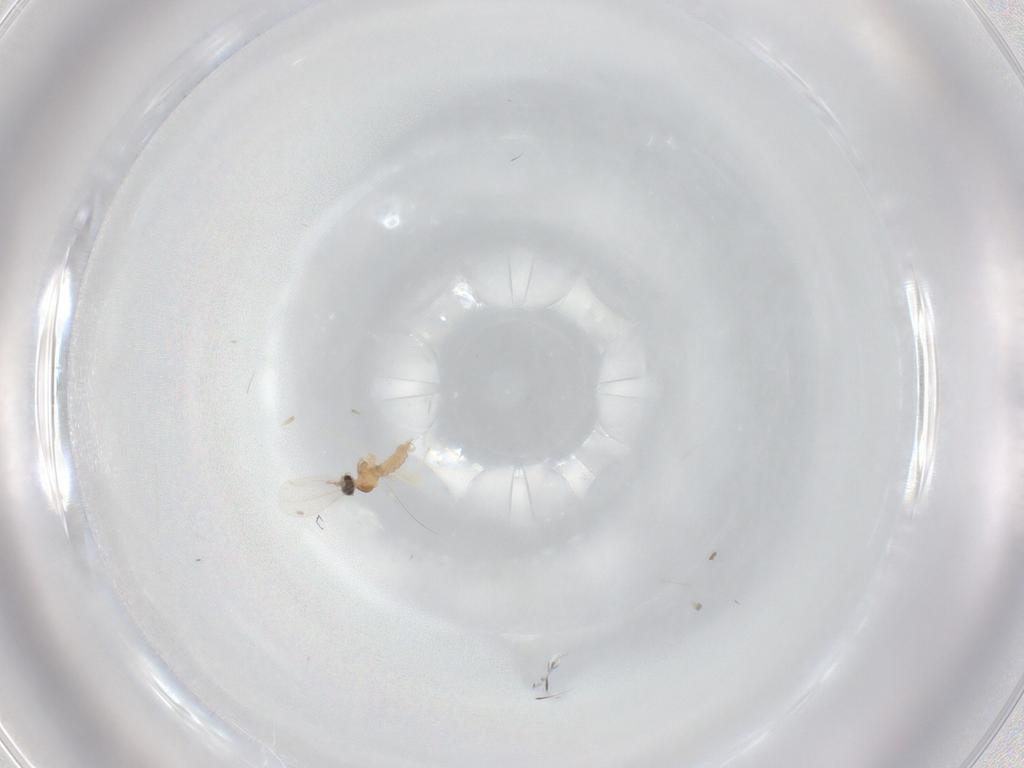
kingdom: Animalia
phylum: Arthropoda
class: Insecta
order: Diptera
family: Cecidomyiidae
